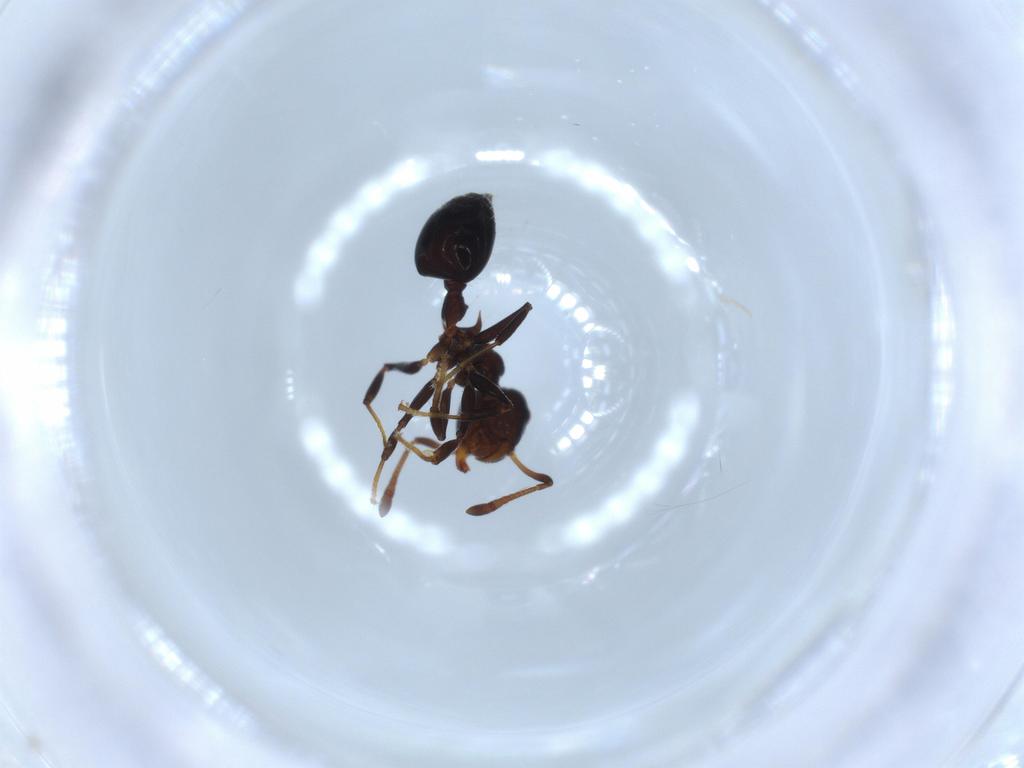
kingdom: Animalia
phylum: Arthropoda
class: Insecta
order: Hymenoptera
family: Formicidae
